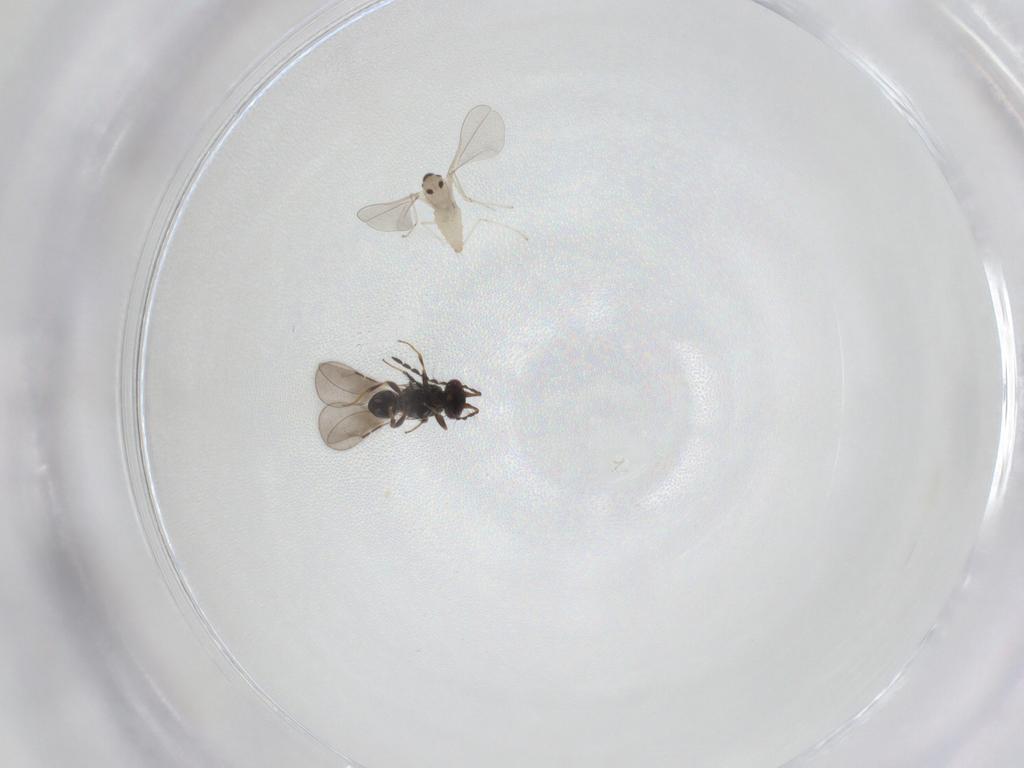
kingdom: Animalia
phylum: Arthropoda
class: Insecta
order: Diptera
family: Cecidomyiidae
